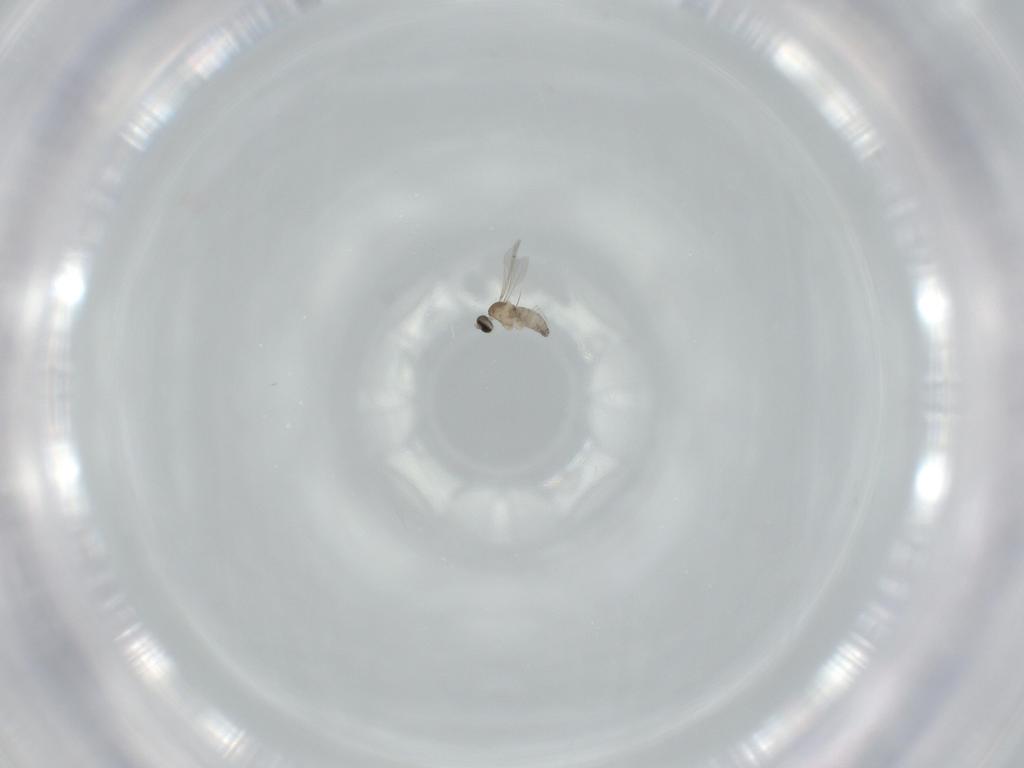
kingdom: Animalia
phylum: Arthropoda
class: Insecta
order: Diptera
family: Cecidomyiidae
